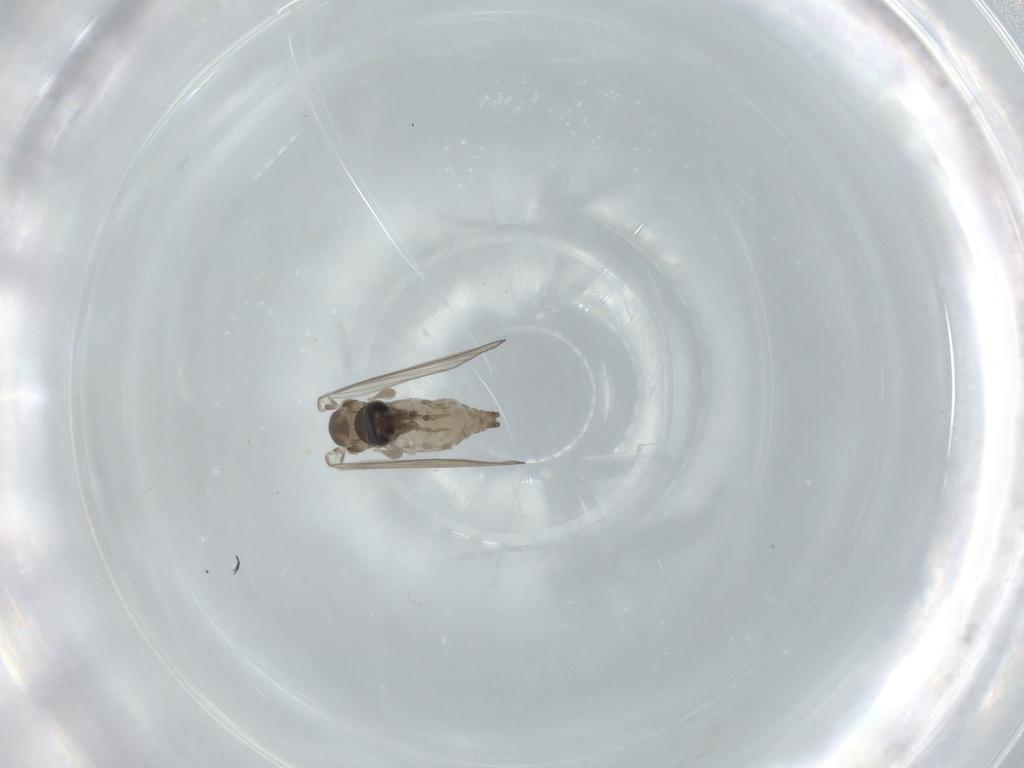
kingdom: Animalia
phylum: Arthropoda
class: Insecta
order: Diptera
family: Psychodidae
